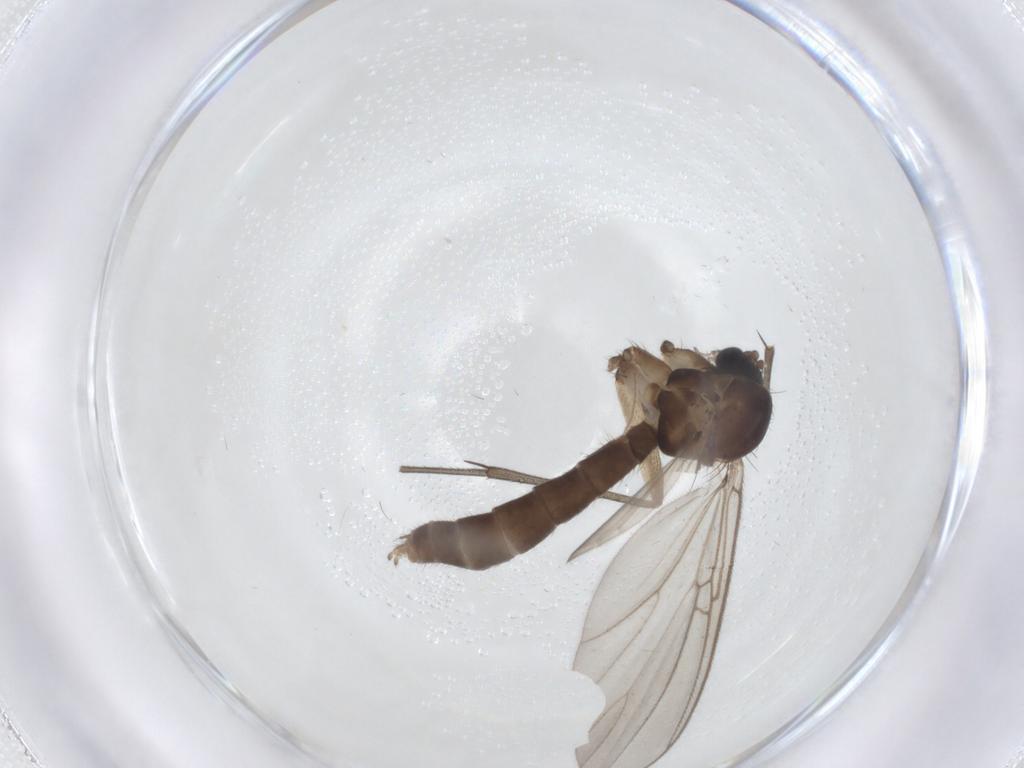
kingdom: Animalia
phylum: Arthropoda
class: Insecta
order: Diptera
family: Mycetophilidae
